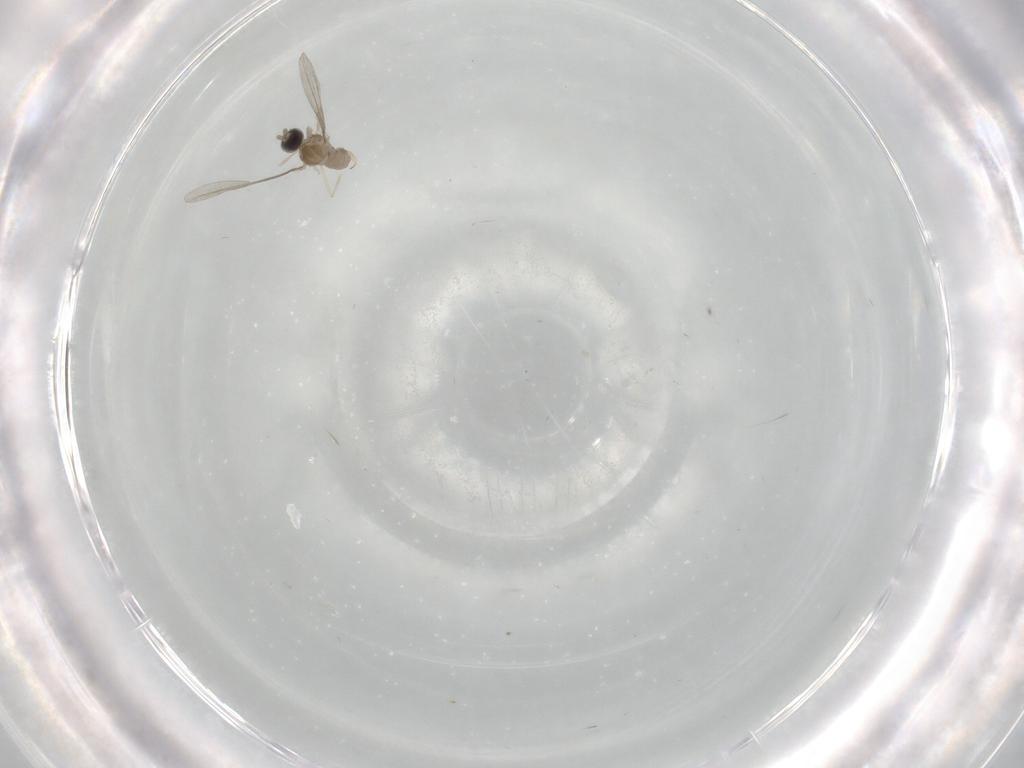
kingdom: Animalia
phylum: Arthropoda
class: Insecta
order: Diptera
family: Cecidomyiidae
